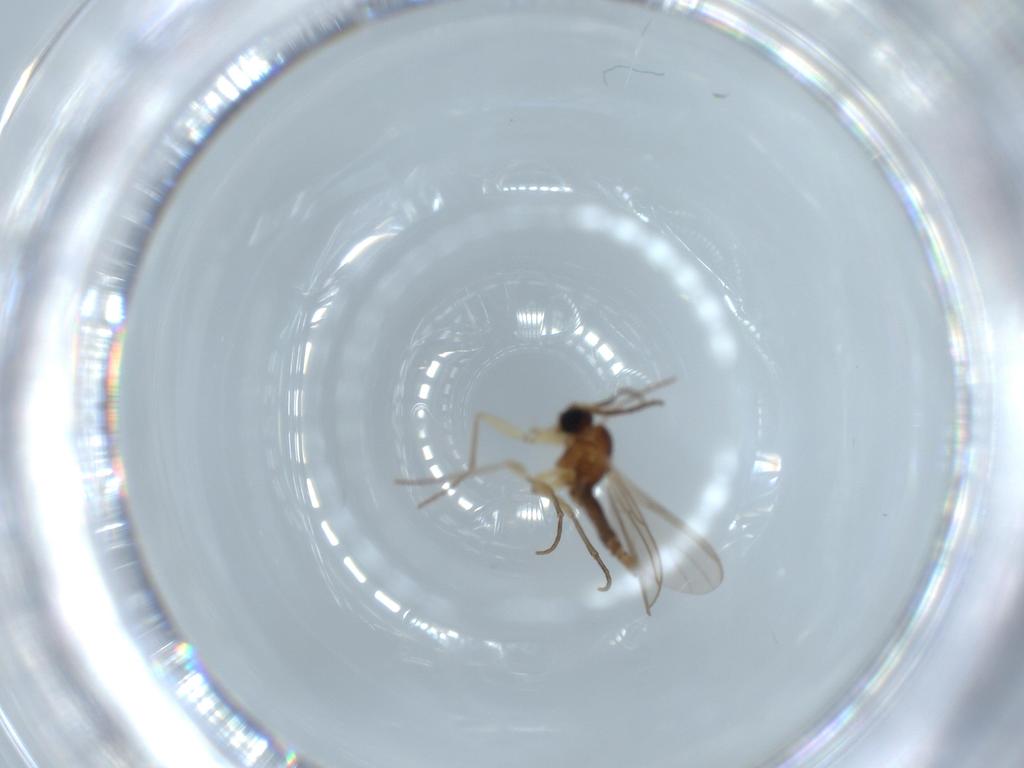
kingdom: Animalia
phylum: Arthropoda
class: Insecta
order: Diptera
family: Sciaridae
